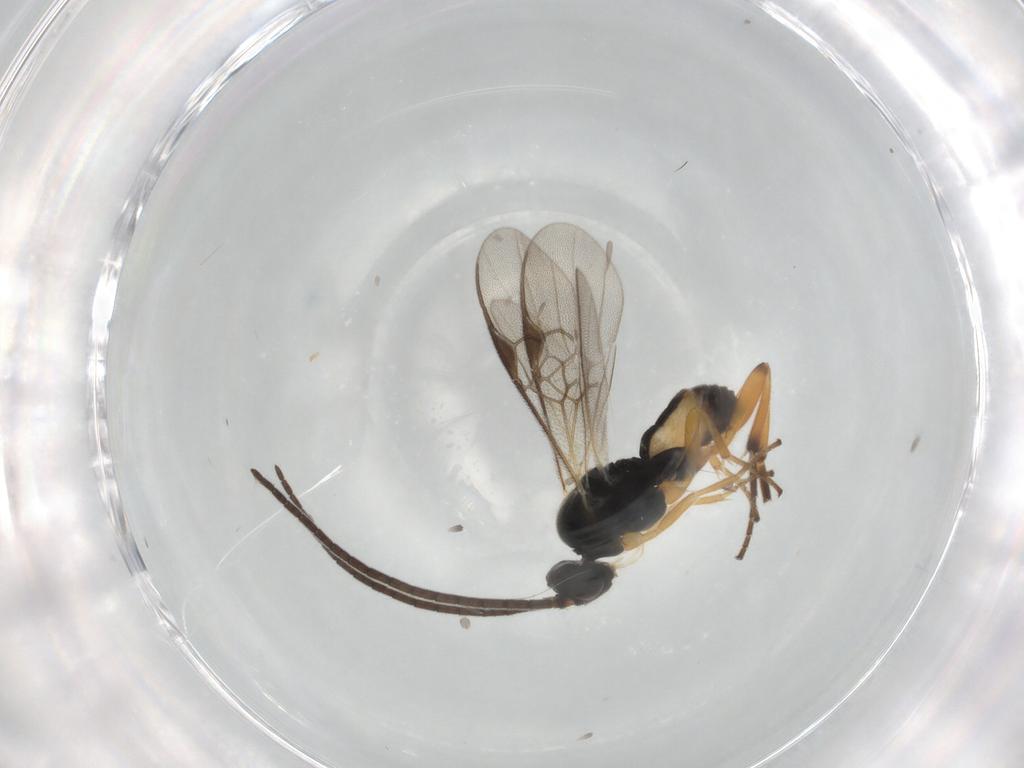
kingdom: Animalia
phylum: Arthropoda
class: Insecta
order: Hymenoptera
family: Braconidae
